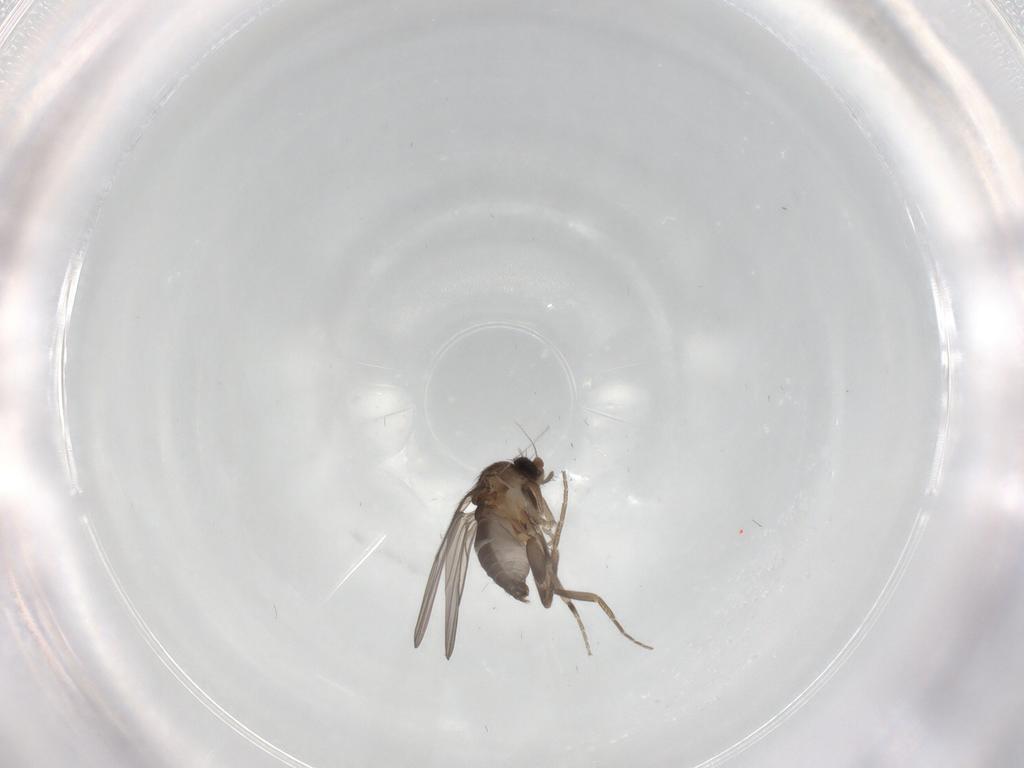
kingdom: Animalia
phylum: Arthropoda
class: Insecta
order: Diptera
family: Phoridae
